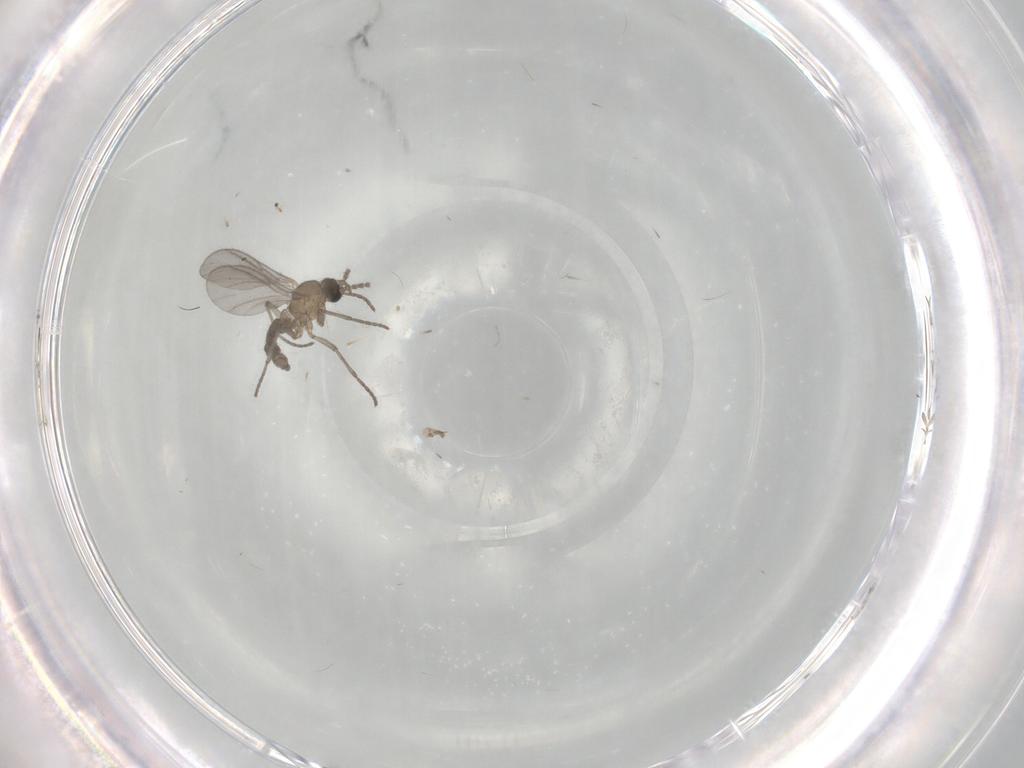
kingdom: Animalia
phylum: Arthropoda
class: Insecta
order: Diptera
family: Sciaridae
